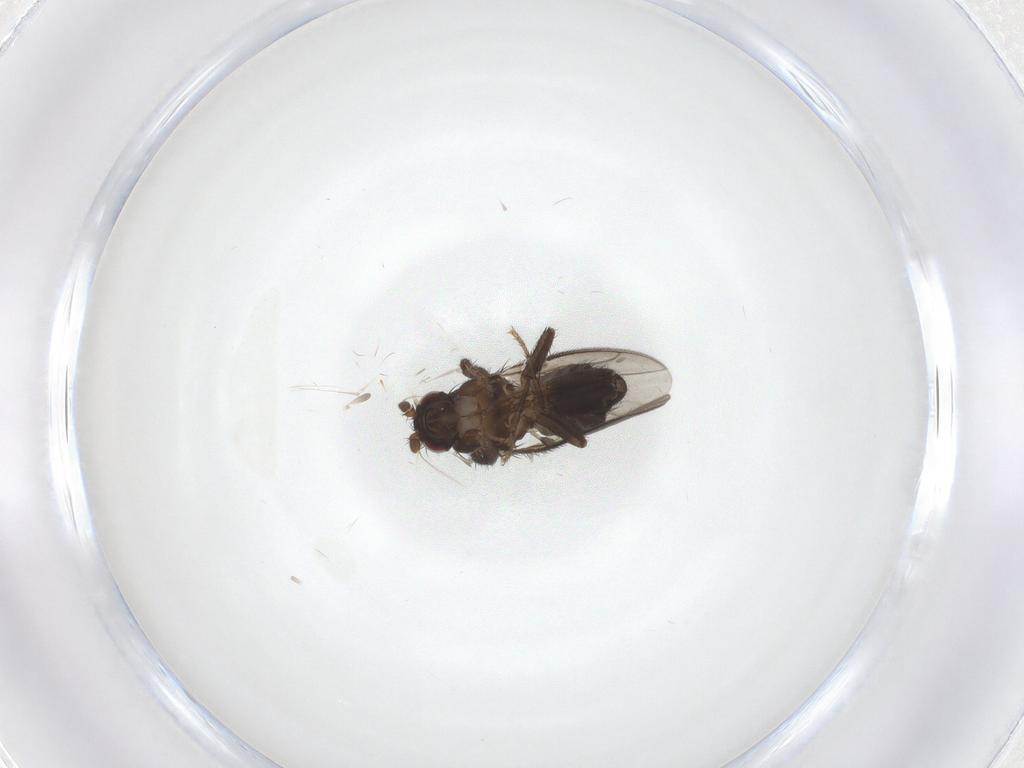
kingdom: Animalia
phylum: Arthropoda
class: Insecta
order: Diptera
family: Sphaeroceridae
